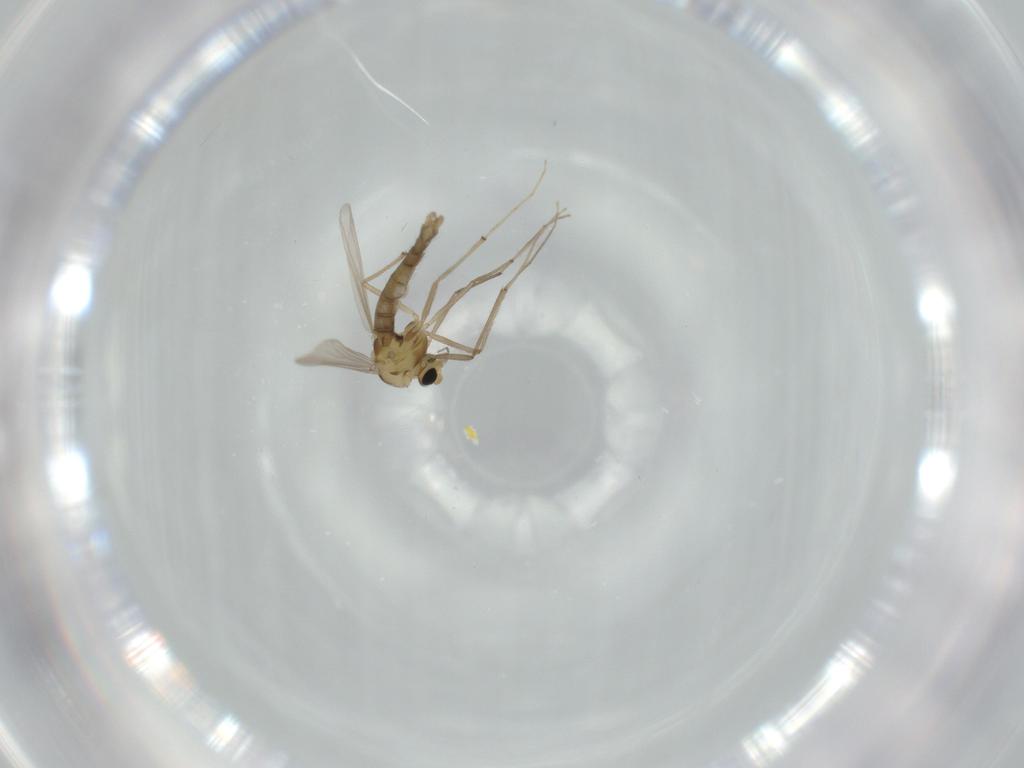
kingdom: Animalia
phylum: Arthropoda
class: Insecta
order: Diptera
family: Chironomidae
